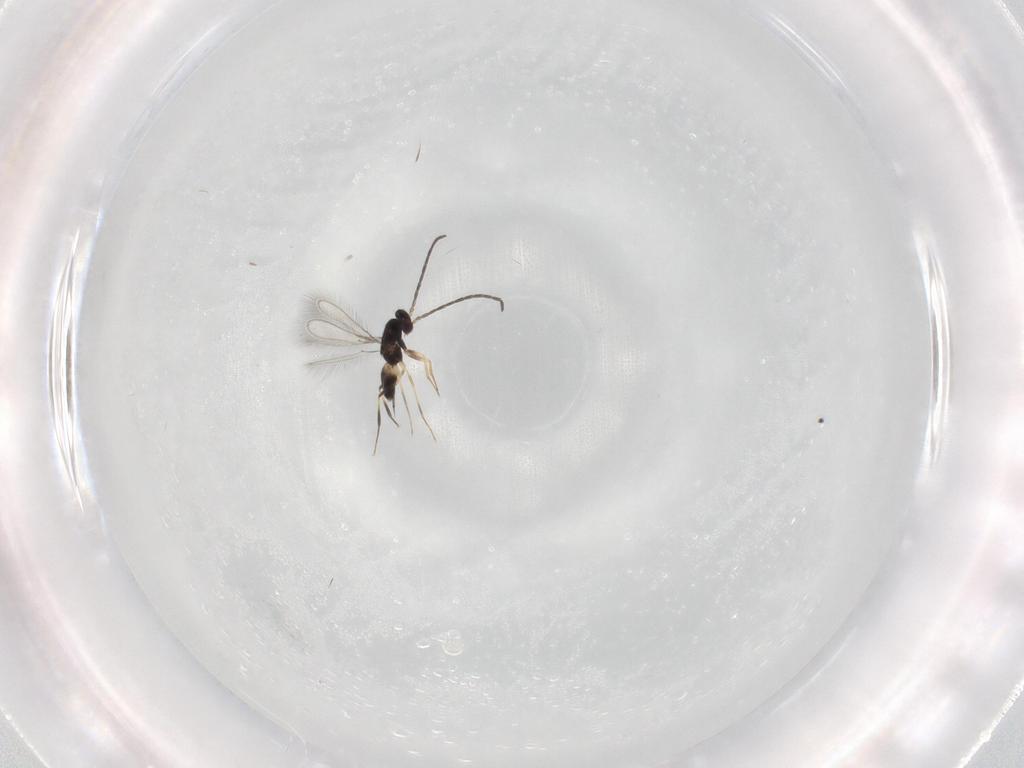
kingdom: Animalia
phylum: Arthropoda
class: Insecta
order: Hymenoptera
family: Mymaridae
